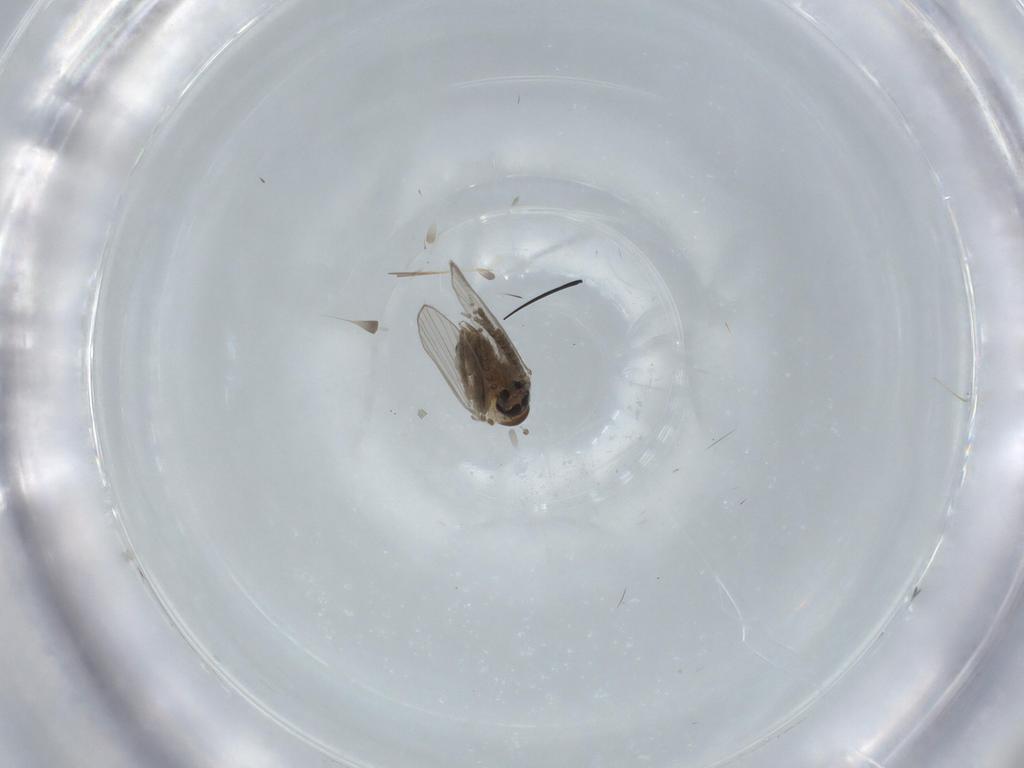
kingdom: Animalia
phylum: Arthropoda
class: Insecta
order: Diptera
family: Psychodidae
